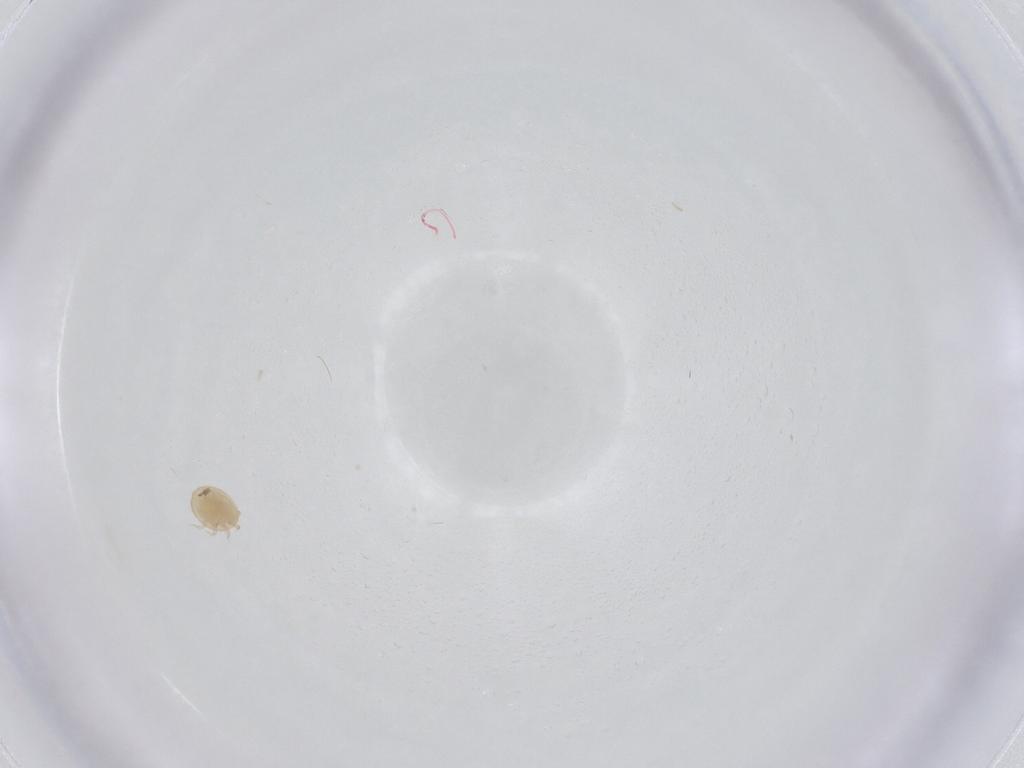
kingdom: Animalia
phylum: Arthropoda
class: Arachnida
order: Mesostigmata
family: Trematuridae
